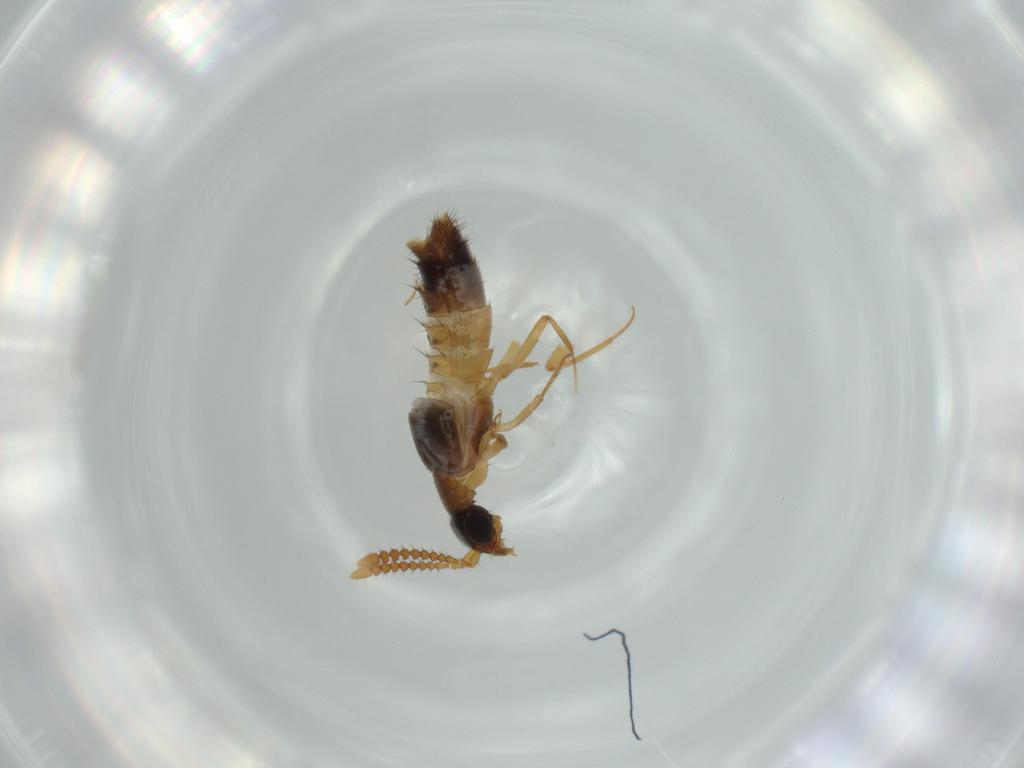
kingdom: Animalia
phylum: Arthropoda
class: Insecta
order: Coleoptera
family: Staphylinidae
